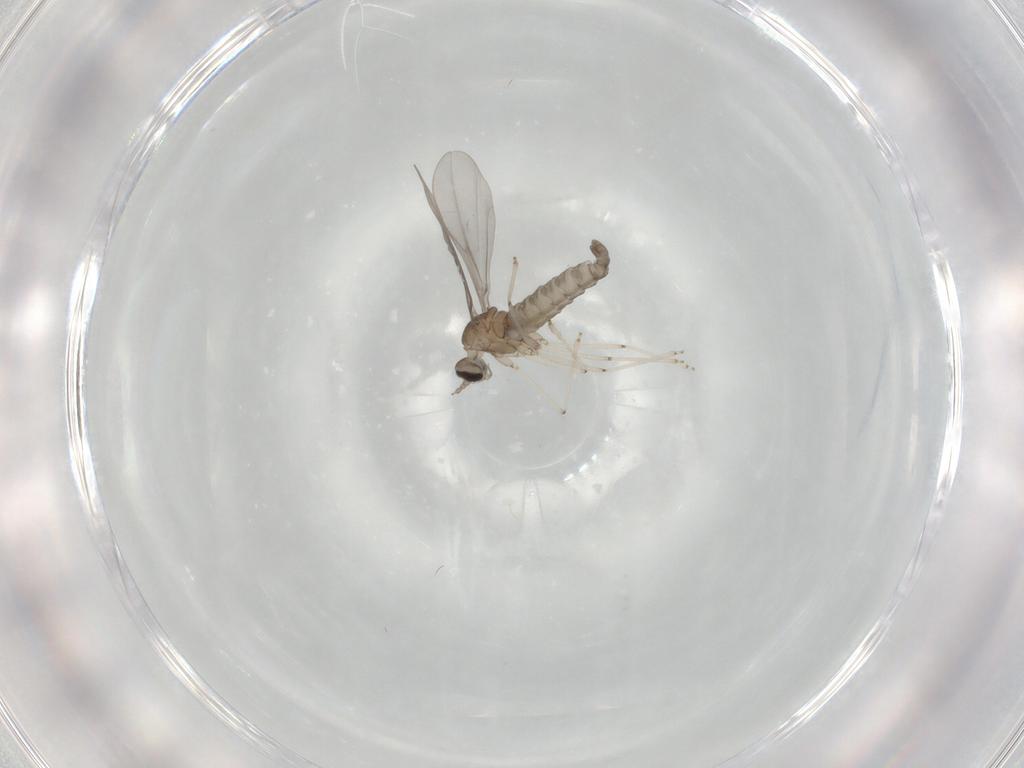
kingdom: Animalia
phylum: Arthropoda
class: Insecta
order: Diptera
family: Cecidomyiidae
